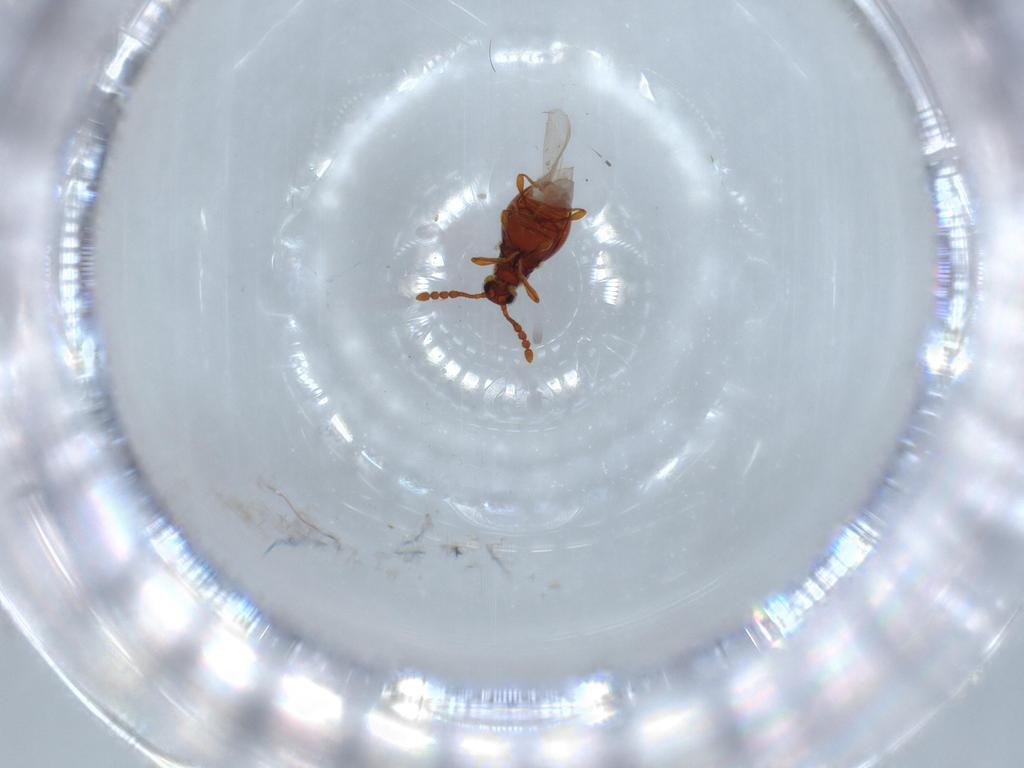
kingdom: Animalia
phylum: Arthropoda
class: Insecta
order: Coleoptera
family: Staphylinidae
